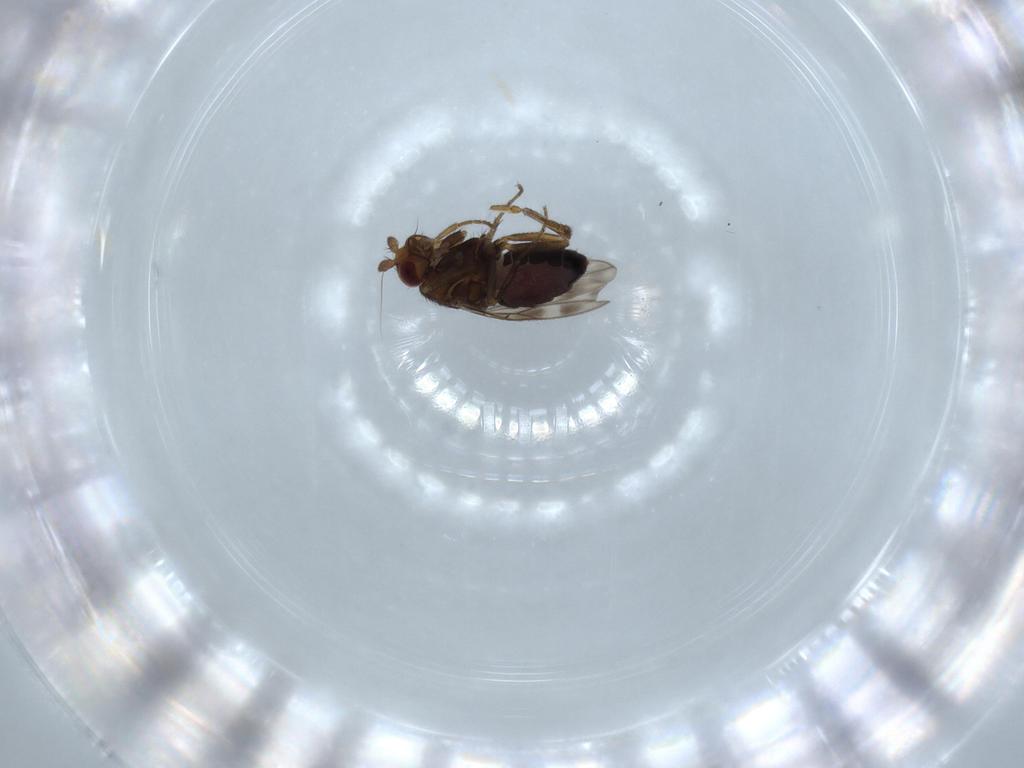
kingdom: Animalia
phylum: Arthropoda
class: Insecta
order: Diptera
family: Sphaeroceridae
